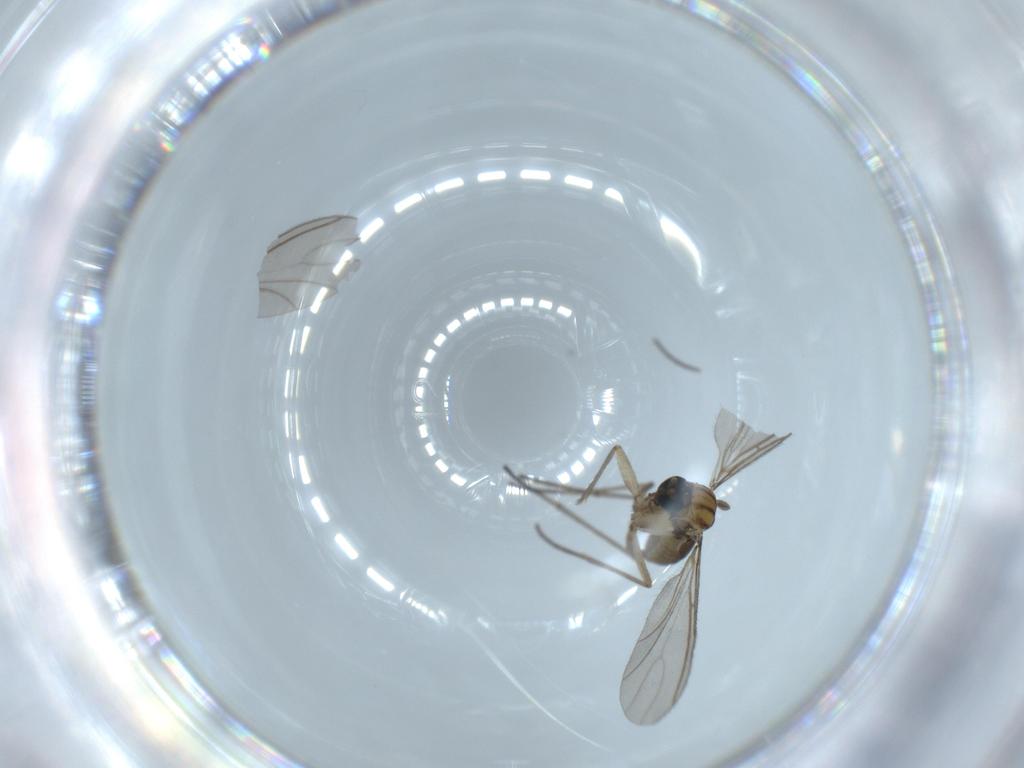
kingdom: Animalia
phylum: Arthropoda
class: Insecta
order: Diptera
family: Sciaridae
